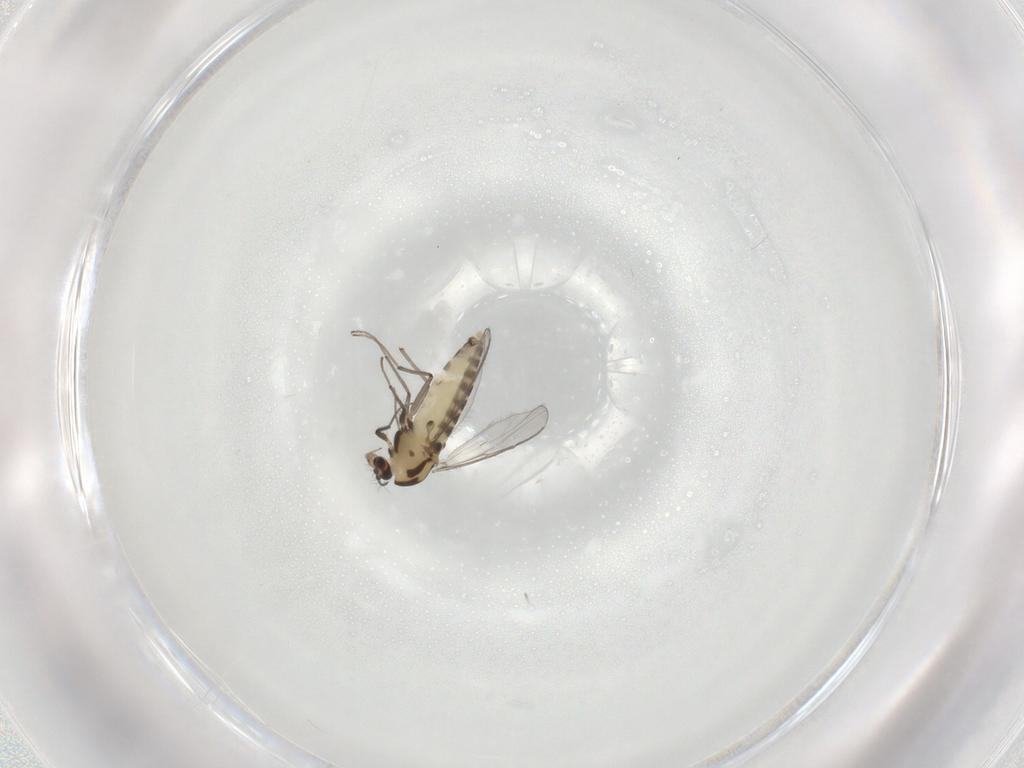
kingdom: Animalia
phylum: Arthropoda
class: Insecta
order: Diptera
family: Chironomidae
